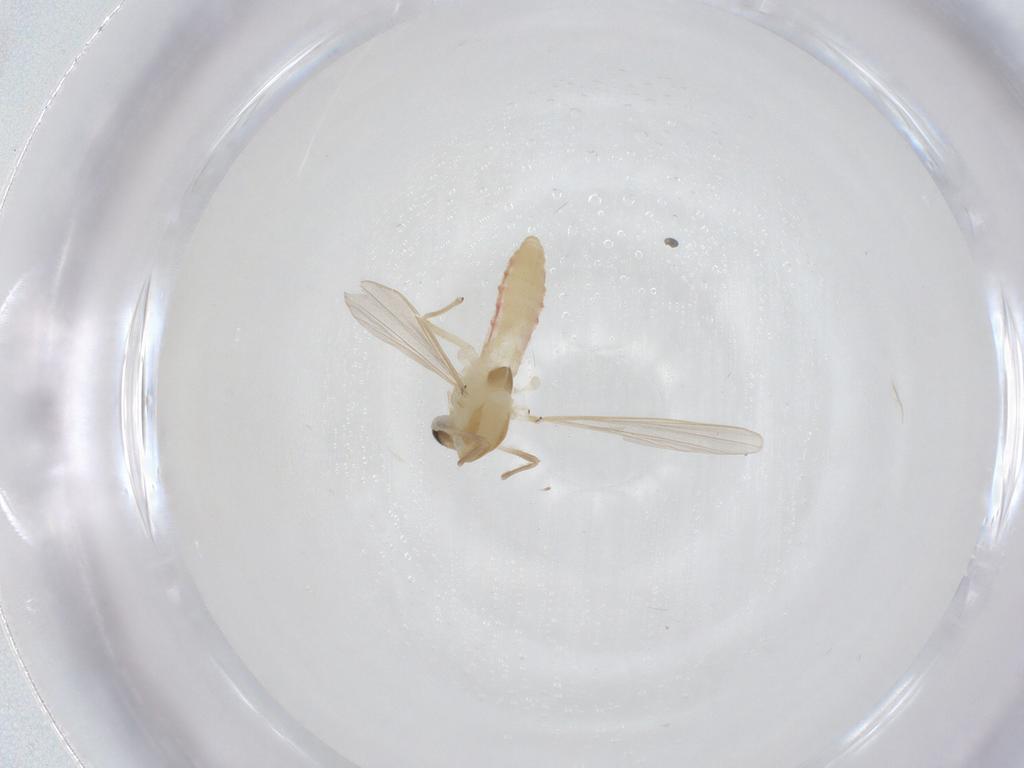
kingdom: Animalia
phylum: Arthropoda
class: Insecta
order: Diptera
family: Chironomidae
